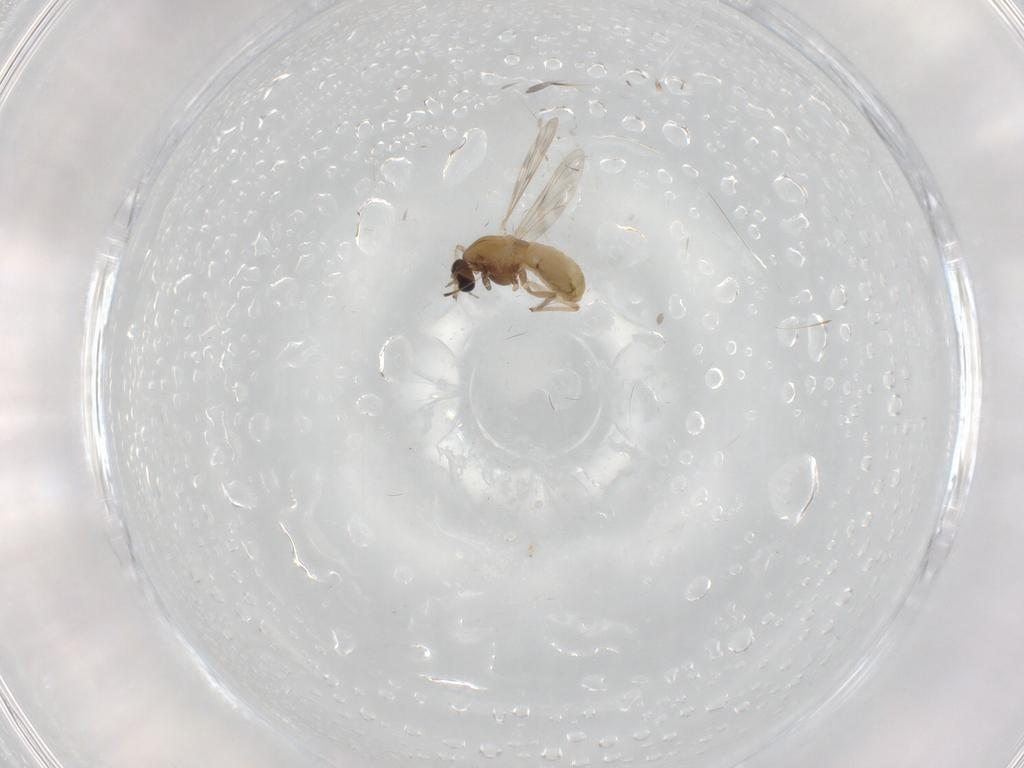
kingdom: Animalia
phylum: Arthropoda
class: Insecta
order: Diptera
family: Chironomidae
